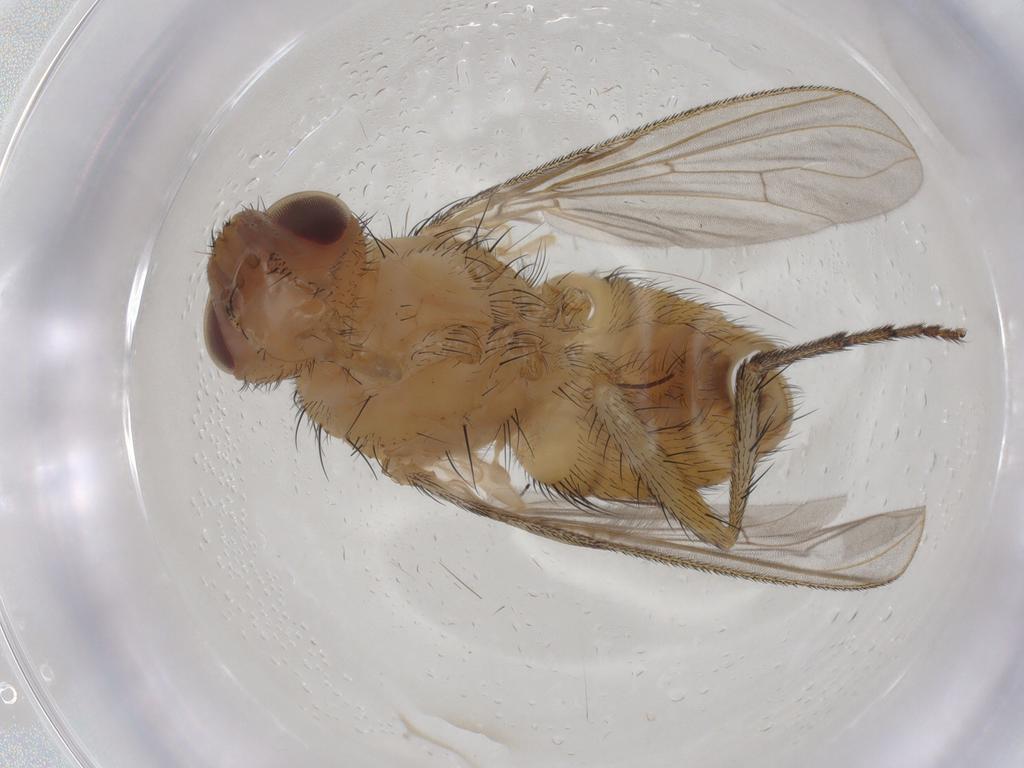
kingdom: Animalia
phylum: Arthropoda
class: Insecta
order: Diptera
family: Tachinidae
